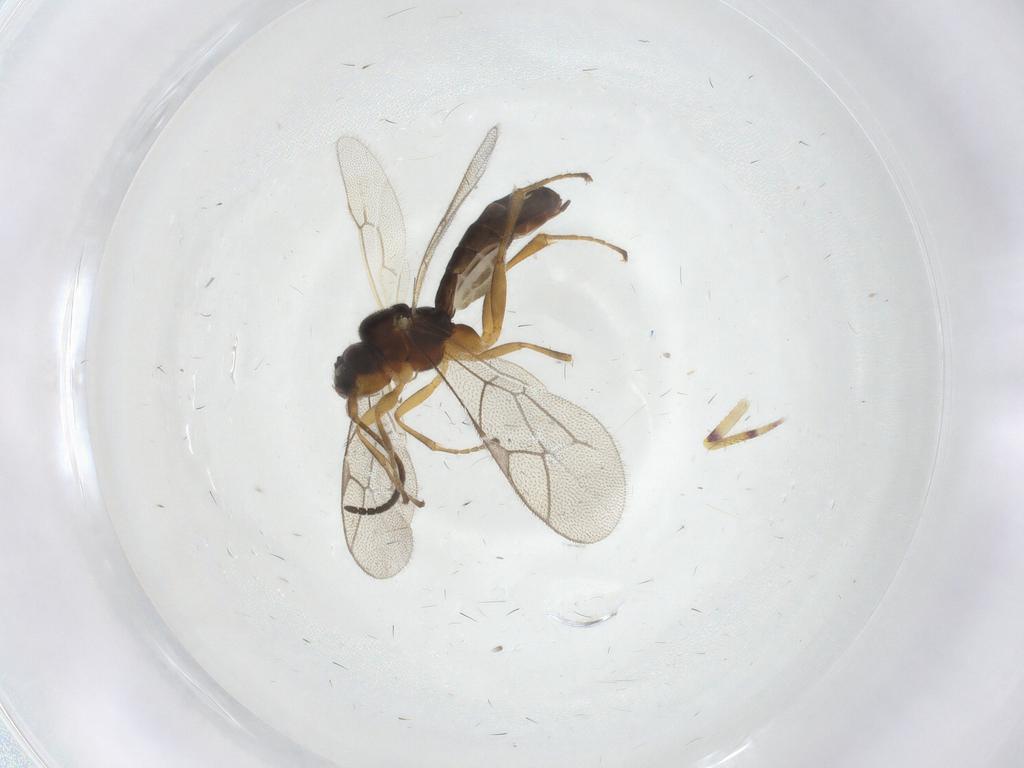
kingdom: Animalia
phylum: Arthropoda
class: Insecta
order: Hymenoptera
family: Ichneumonidae
